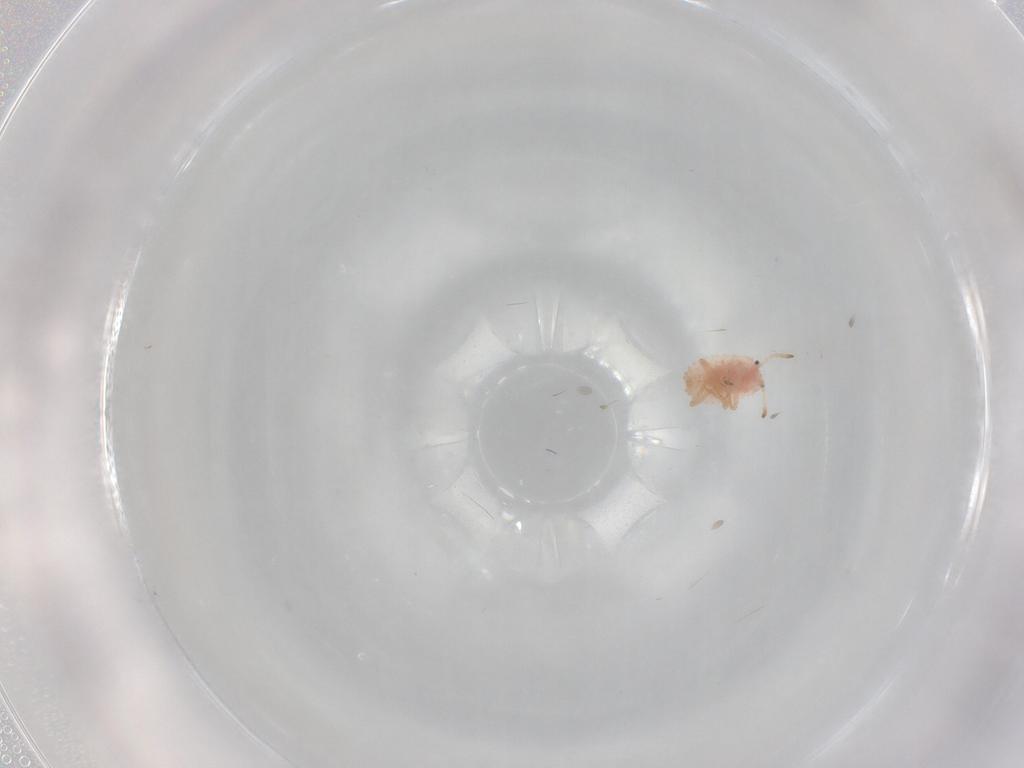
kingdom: Animalia
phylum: Arthropoda
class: Insecta
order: Hemiptera
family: Coccoidea_incertae_sedis
